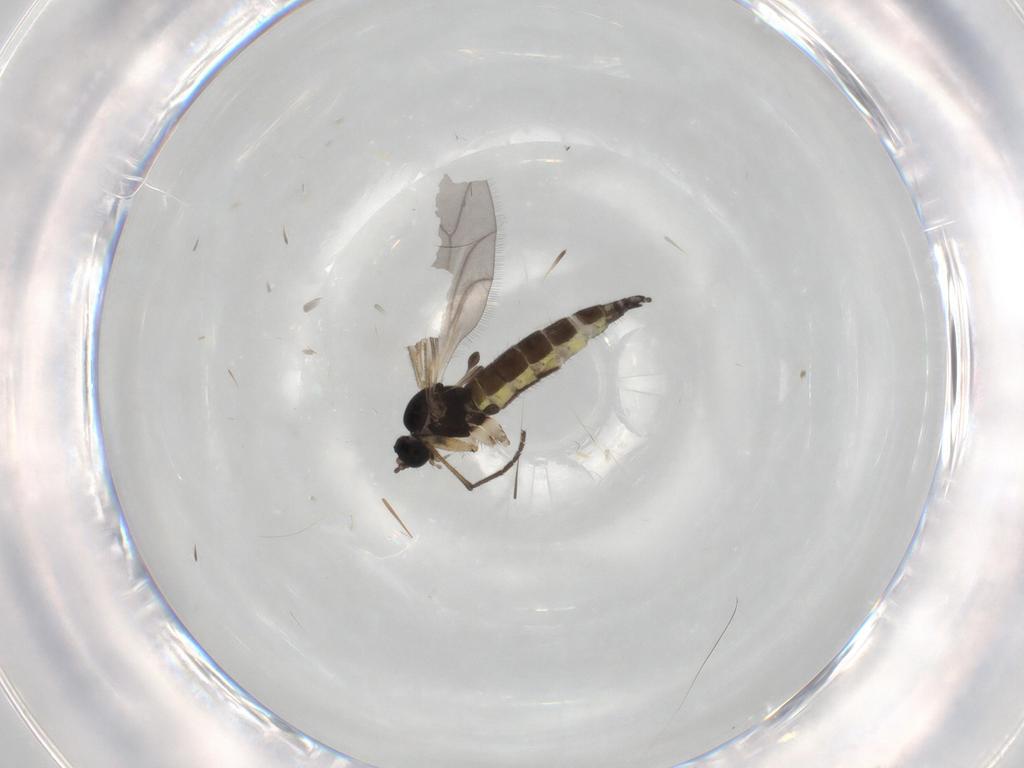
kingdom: Animalia
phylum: Arthropoda
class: Insecta
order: Diptera
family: Sciaridae
